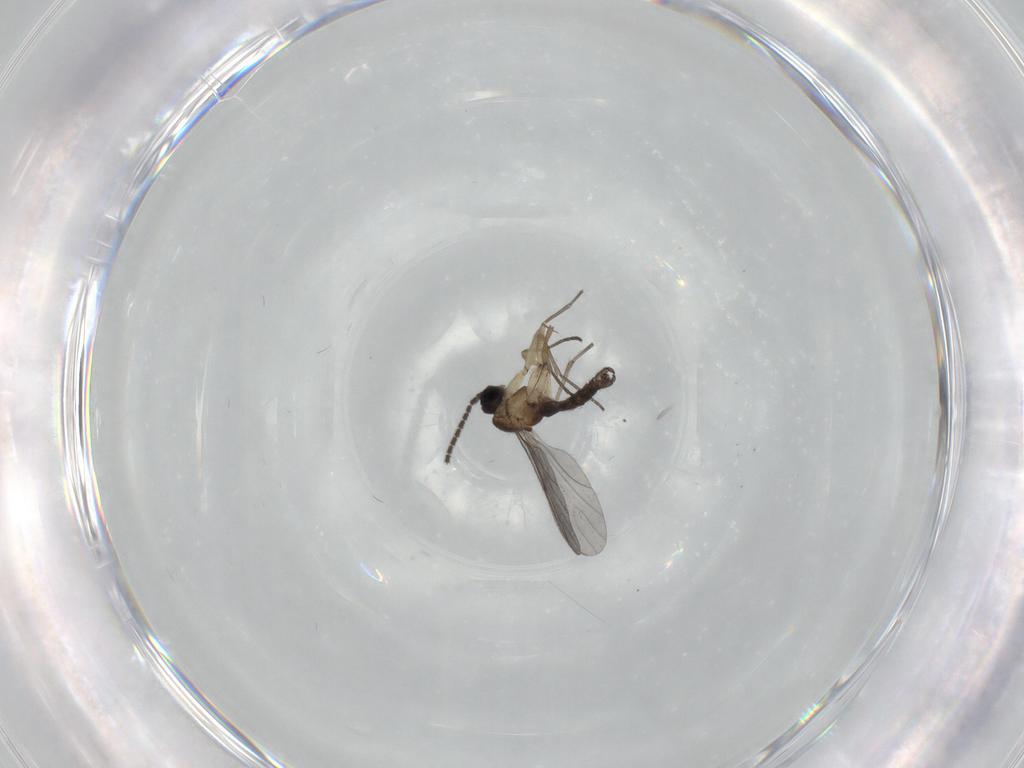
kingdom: Animalia
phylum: Arthropoda
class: Insecta
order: Diptera
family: Sciaridae
